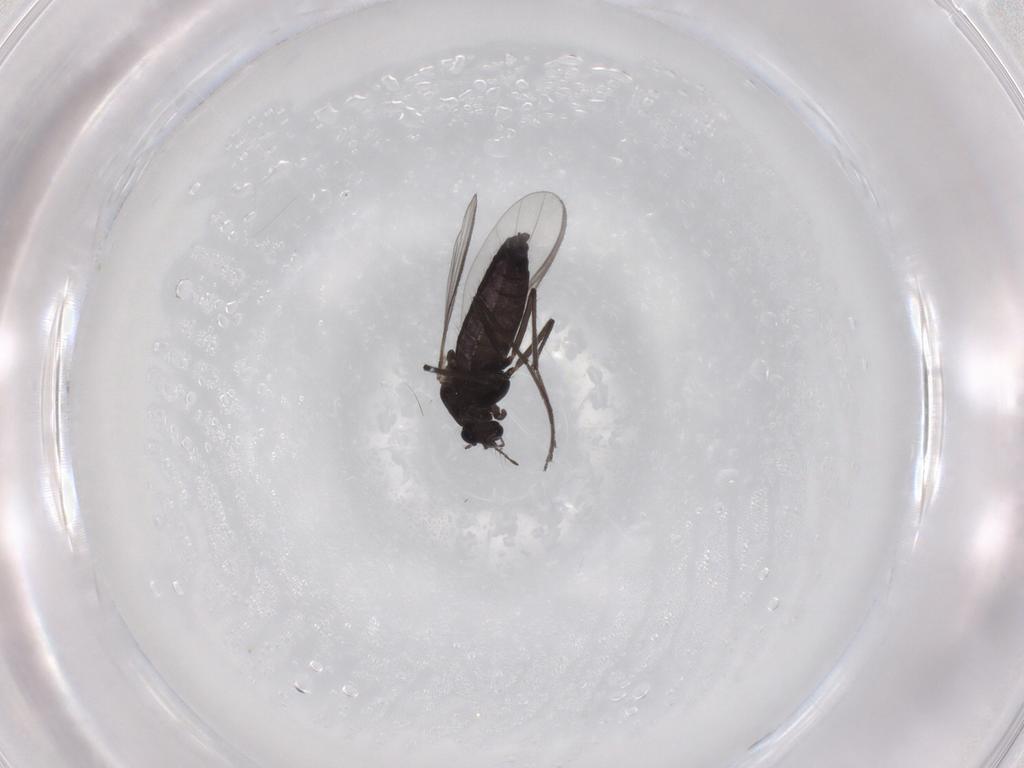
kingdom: Animalia
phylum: Arthropoda
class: Insecta
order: Diptera
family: Chironomidae
